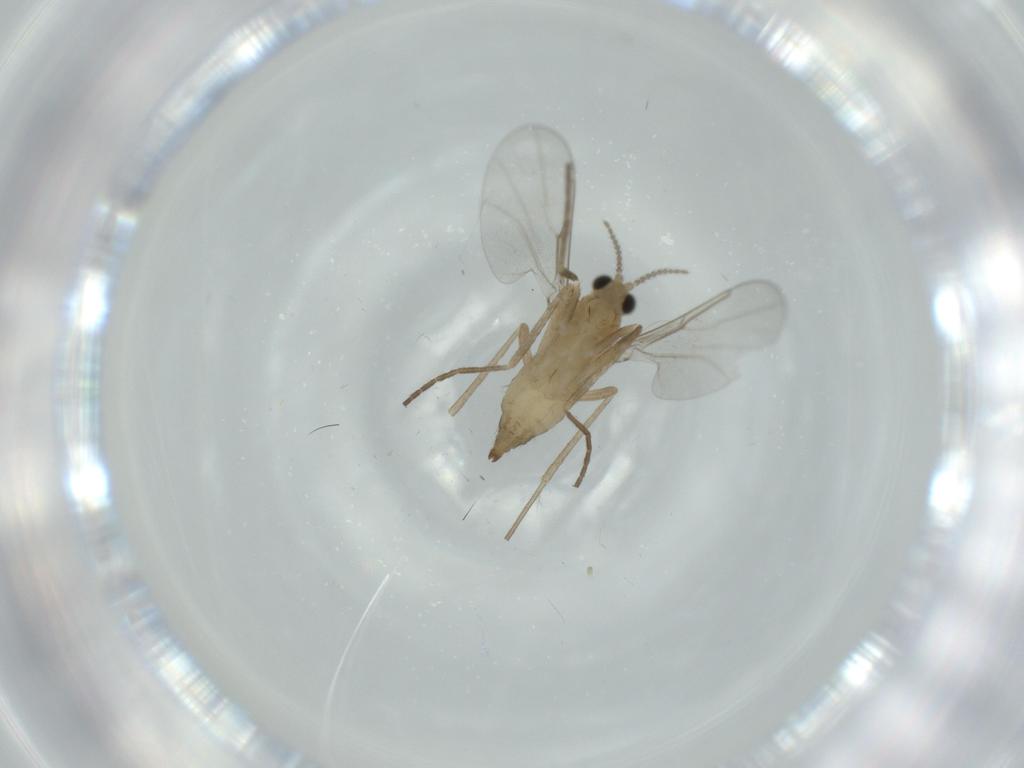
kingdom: Animalia
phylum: Arthropoda
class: Insecta
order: Diptera
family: Cecidomyiidae
